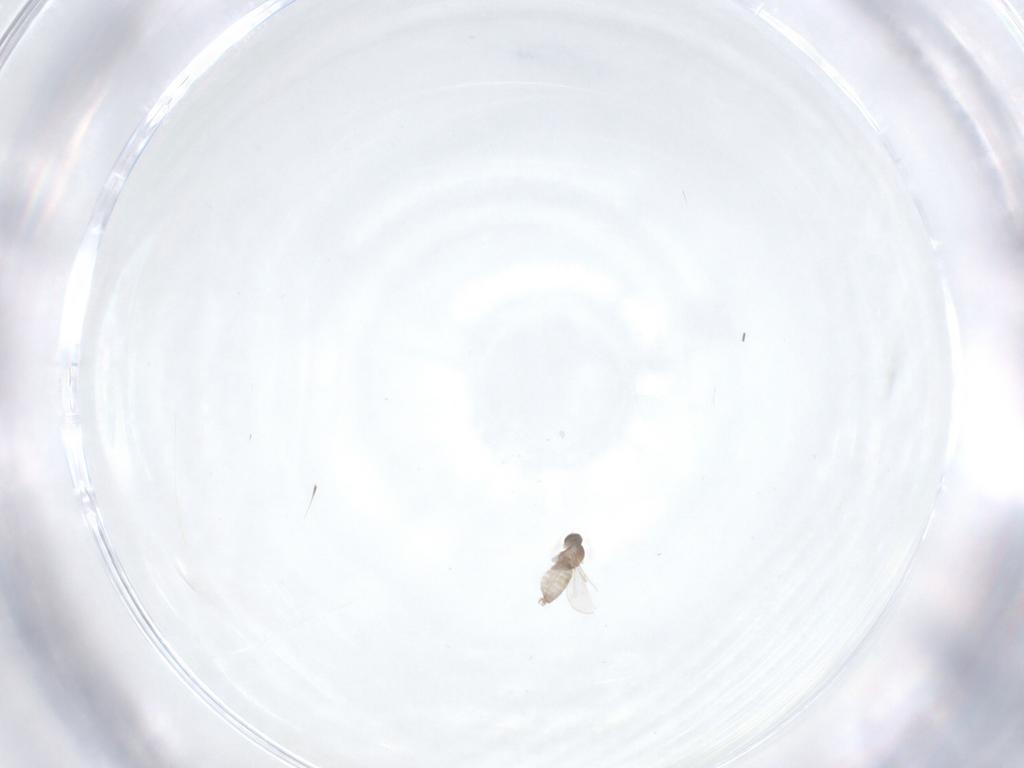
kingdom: Animalia
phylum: Arthropoda
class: Insecta
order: Diptera
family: Cecidomyiidae
